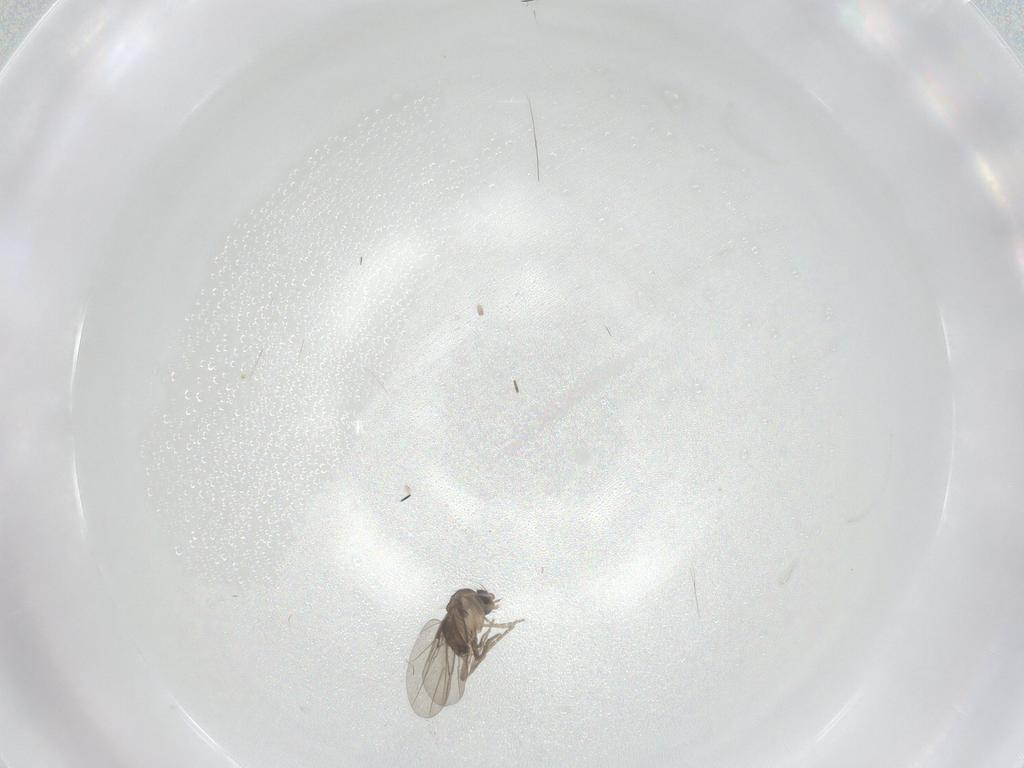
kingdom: Animalia
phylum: Arthropoda
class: Insecta
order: Diptera
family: Phoridae
